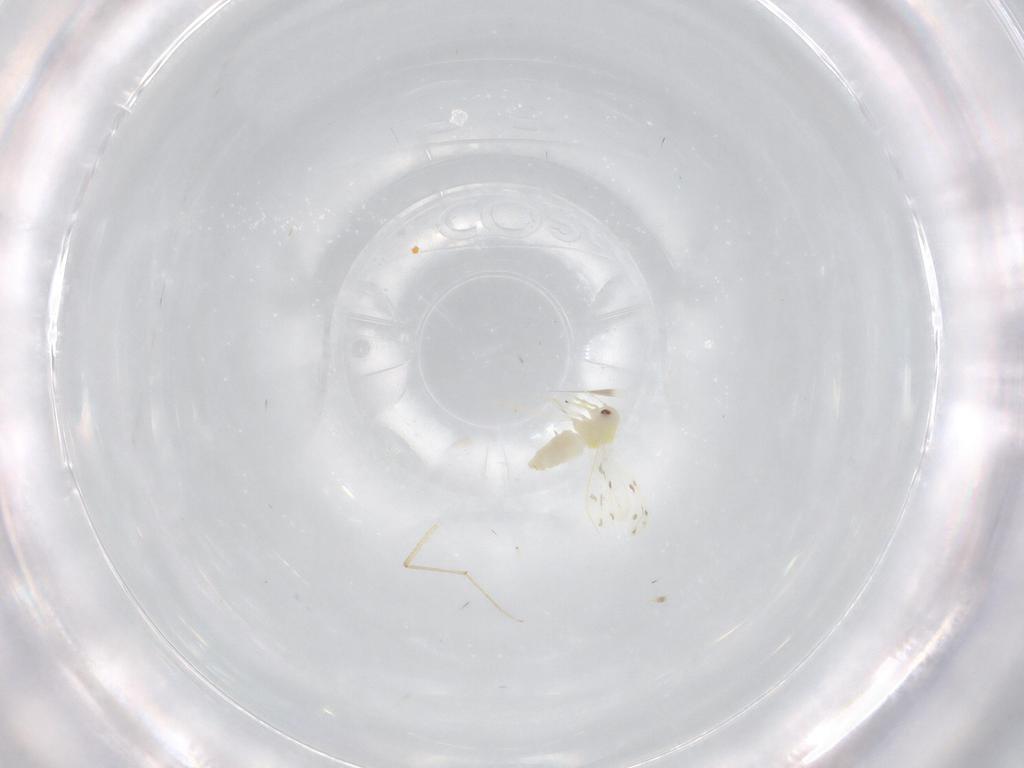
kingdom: Animalia
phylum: Arthropoda
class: Insecta
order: Hemiptera
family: Aleyrodidae
